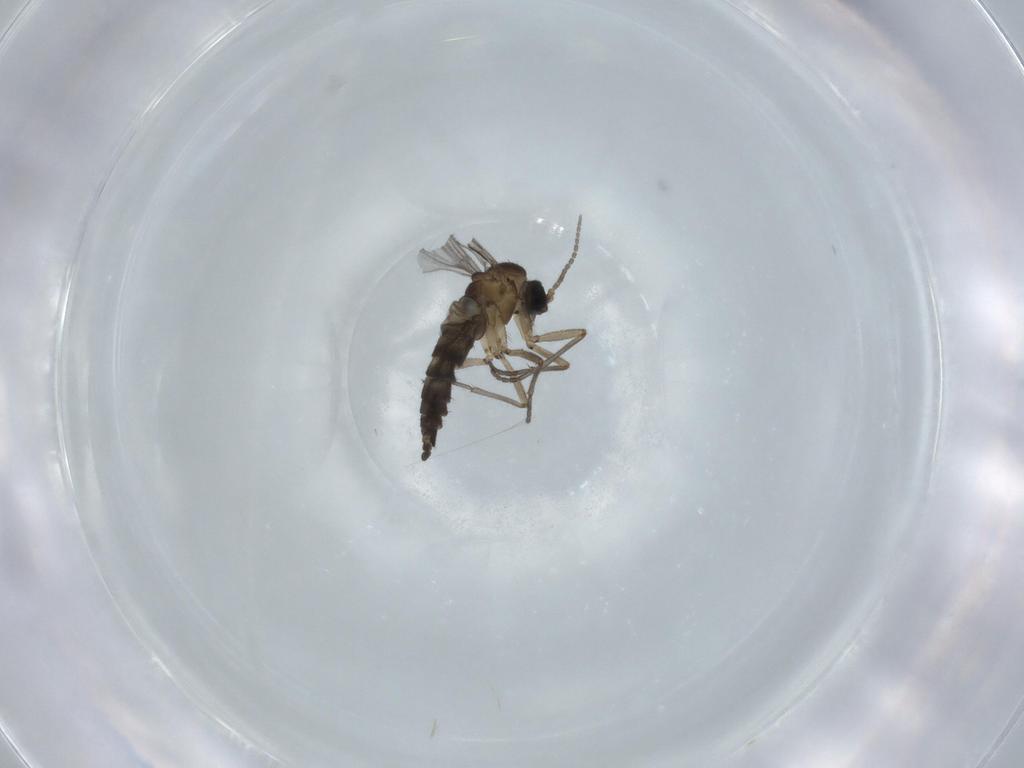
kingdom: Animalia
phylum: Arthropoda
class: Insecta
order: Diptera
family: Sciaridae
